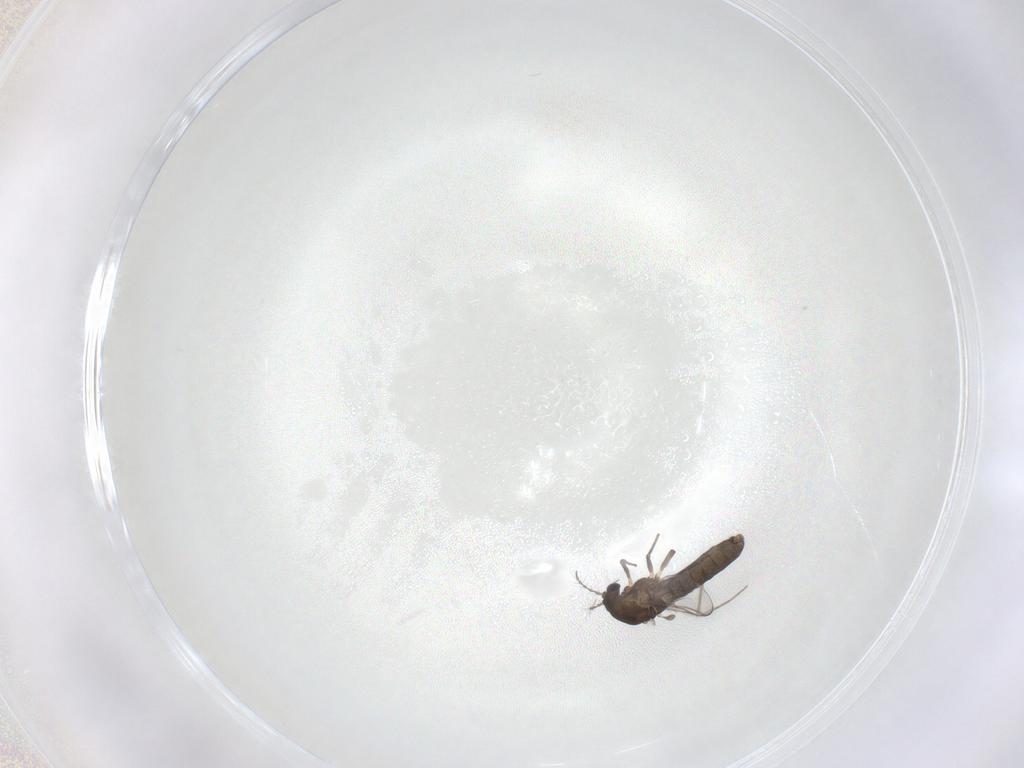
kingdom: Animalia
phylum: Arthropoda
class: Insecta
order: Diptera
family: Chironomidae
